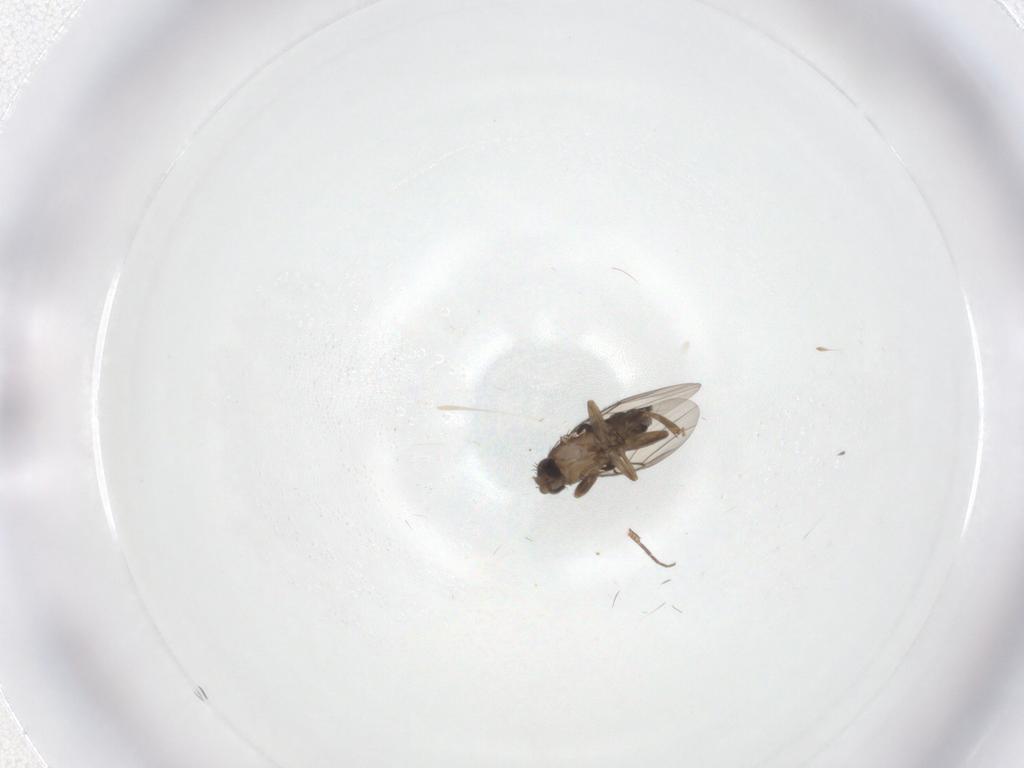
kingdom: Animalia
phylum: Arthropoda
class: Insecta
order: Diptera
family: Phoridae
